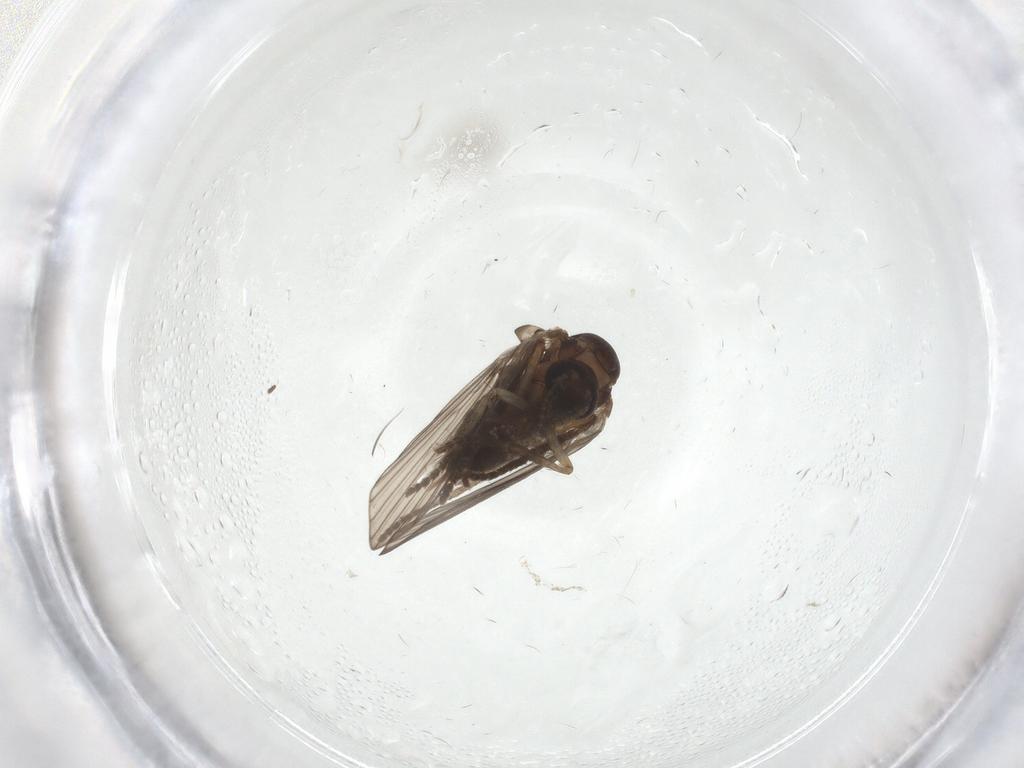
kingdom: Animalia
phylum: Arthropoda
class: Insecta
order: Diptera
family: Psychodidae
